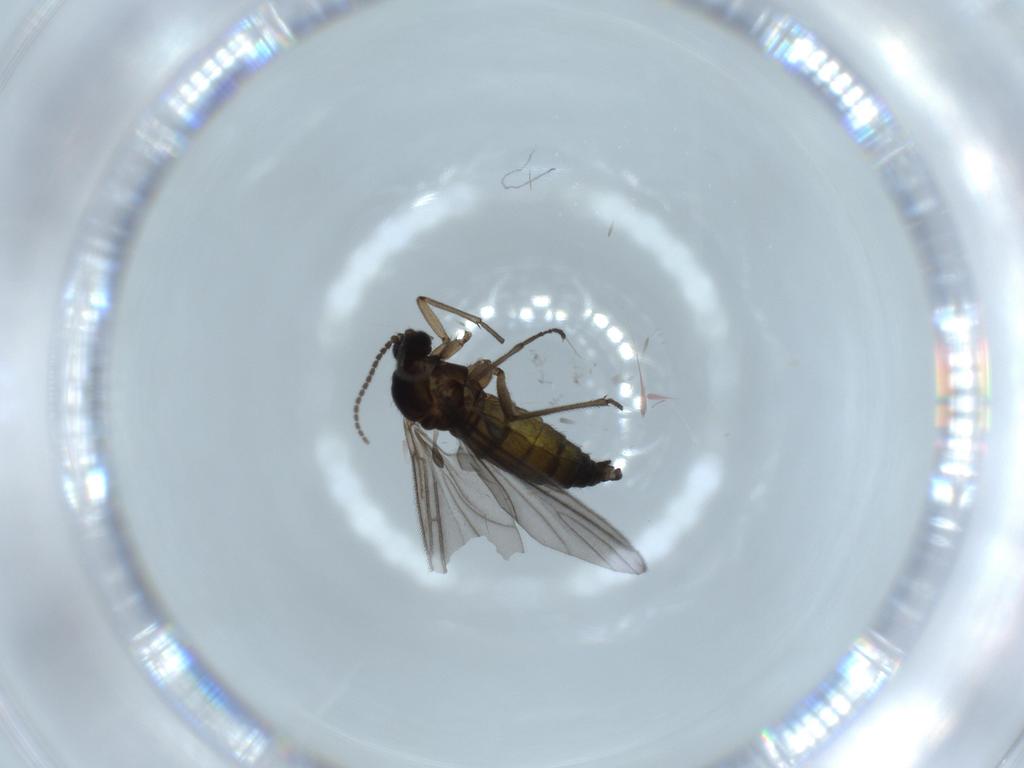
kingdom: Animalia
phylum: Arthropoda
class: Insecta
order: Diptera
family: Sciaridae
